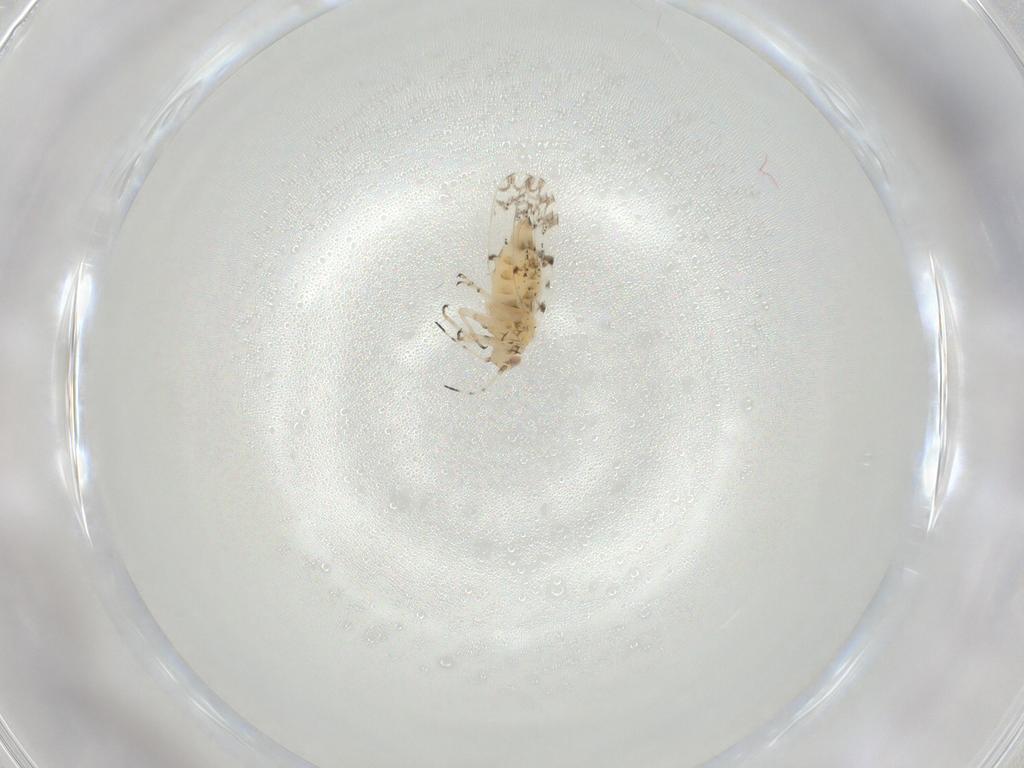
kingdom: Animalia
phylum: Arthropoda
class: Insecta
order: Hemiptera
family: Psylloidea_incertae_sedis
